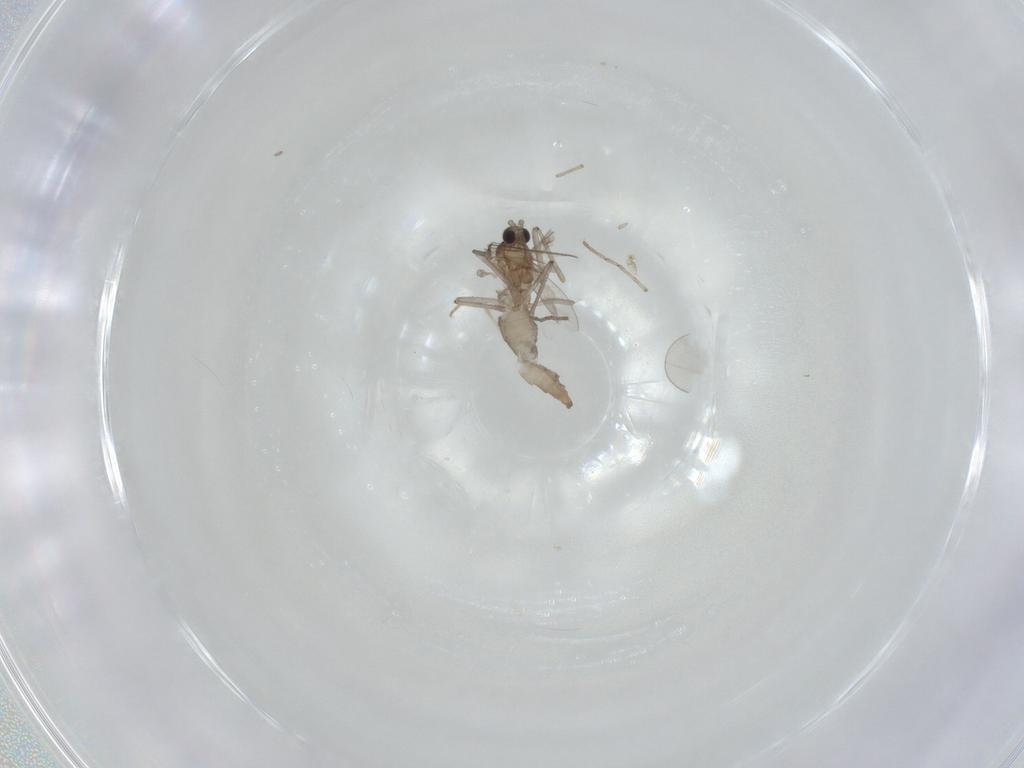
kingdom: Animalia
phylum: Arthropoda
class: Insecta
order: Diptera
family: Cecidomyiidae
